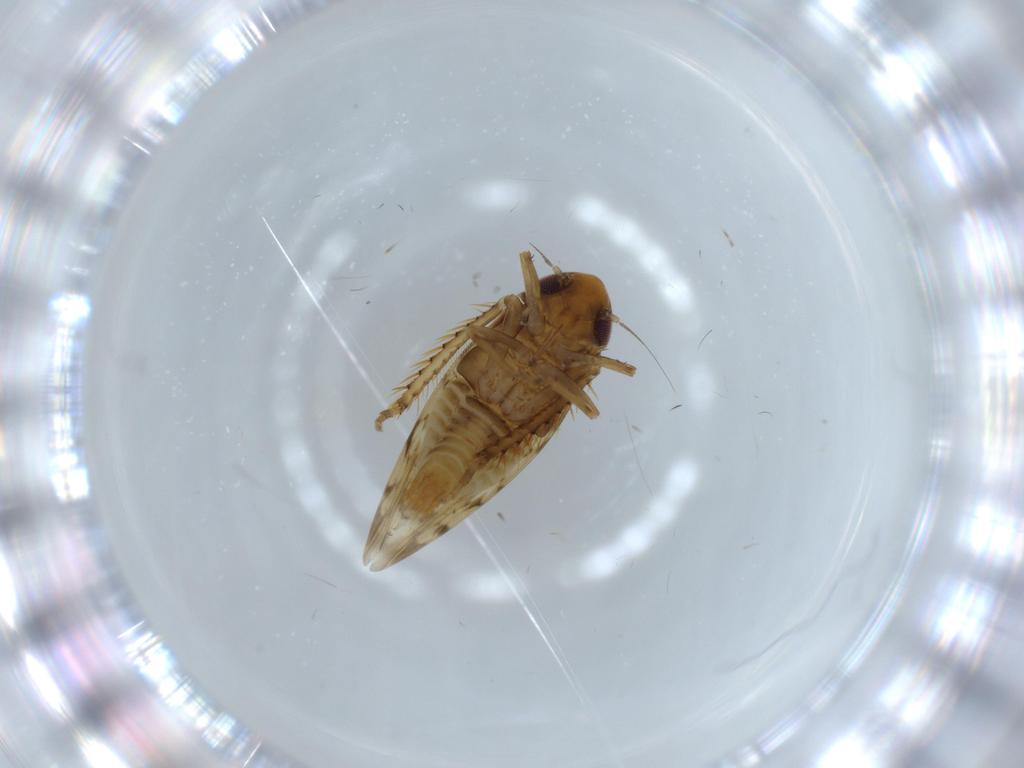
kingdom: Animalia
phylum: Arthropoda
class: Insecta
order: Hemiptera
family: Cicadellidae
